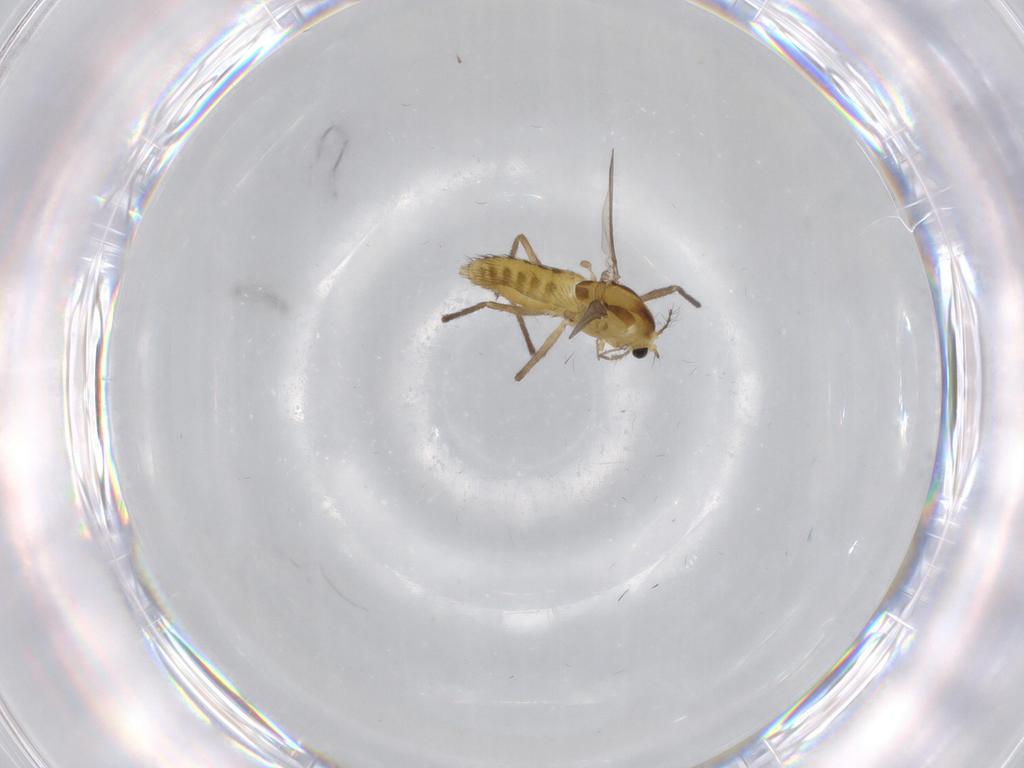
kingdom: Animalia
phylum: Arthropoda
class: Insecta
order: Diptera
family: Chironomidae
